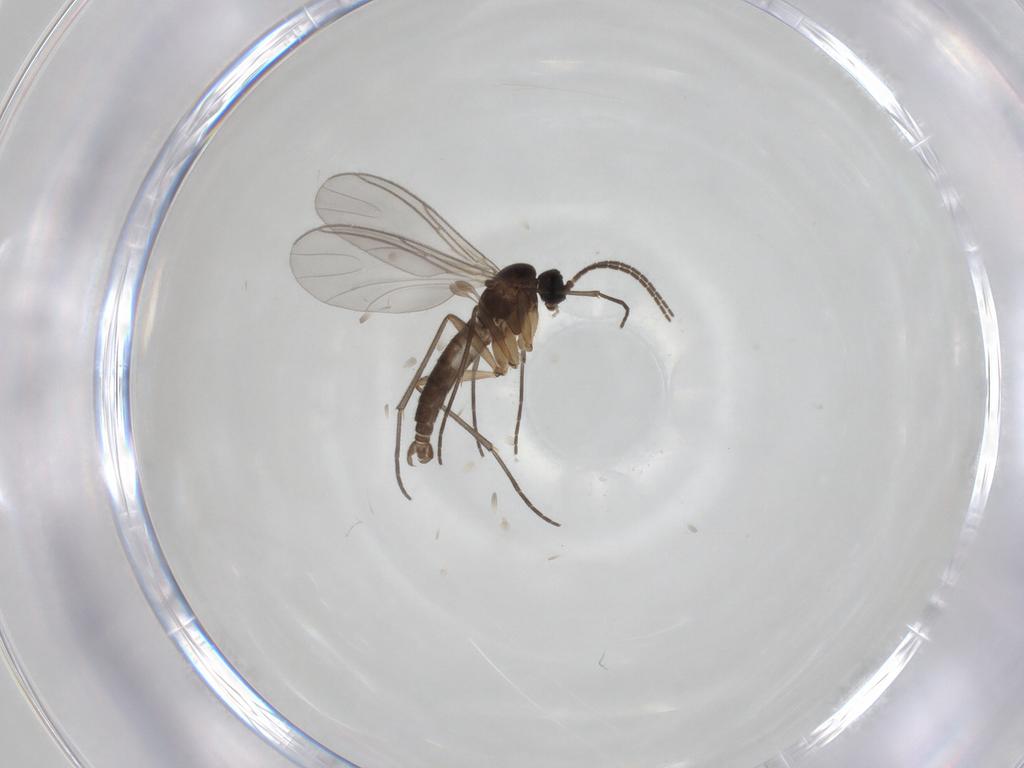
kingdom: Animalia
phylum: Arthropoda
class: Insecta
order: Diptera
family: Sciaridae
